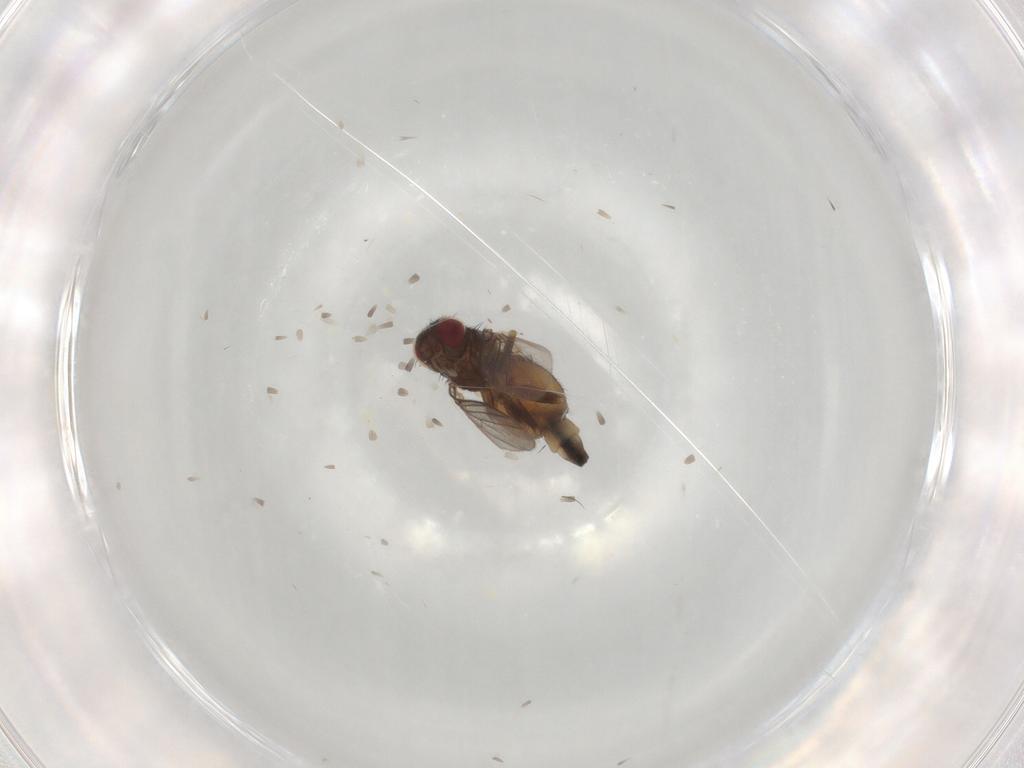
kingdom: Animalia
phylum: Arthropoda
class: Insecta
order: Diptera
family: Chloropidae
